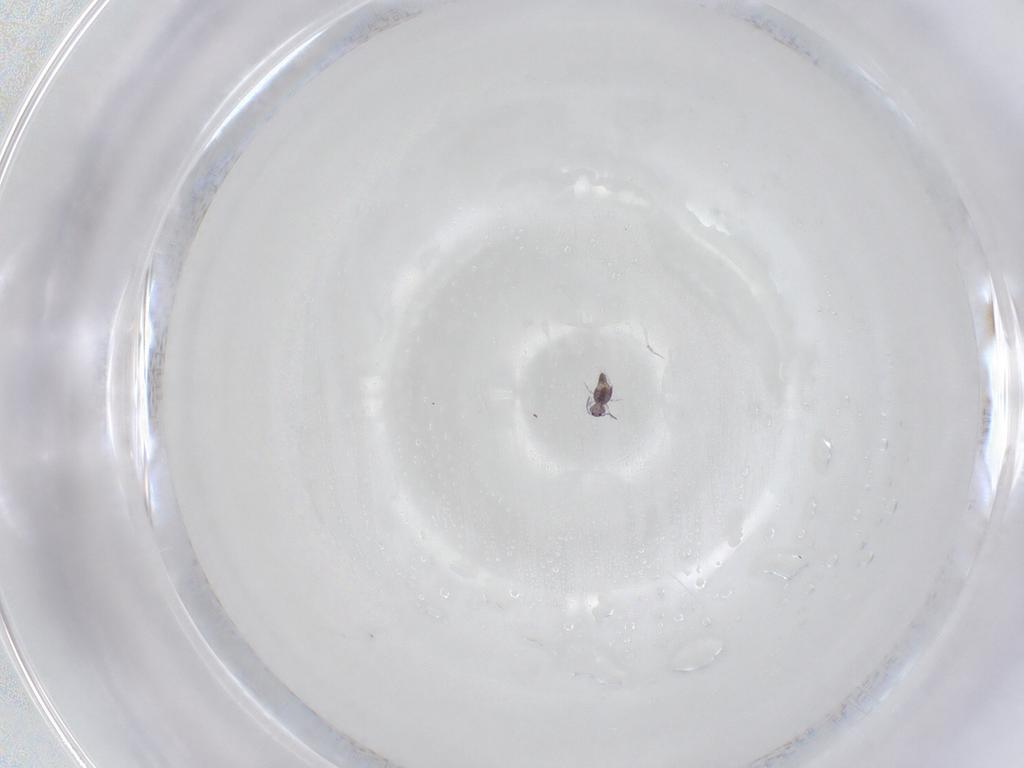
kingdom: Animalia
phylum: Arthropoda
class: Collembola
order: Symphypleona
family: Sminthurididae
